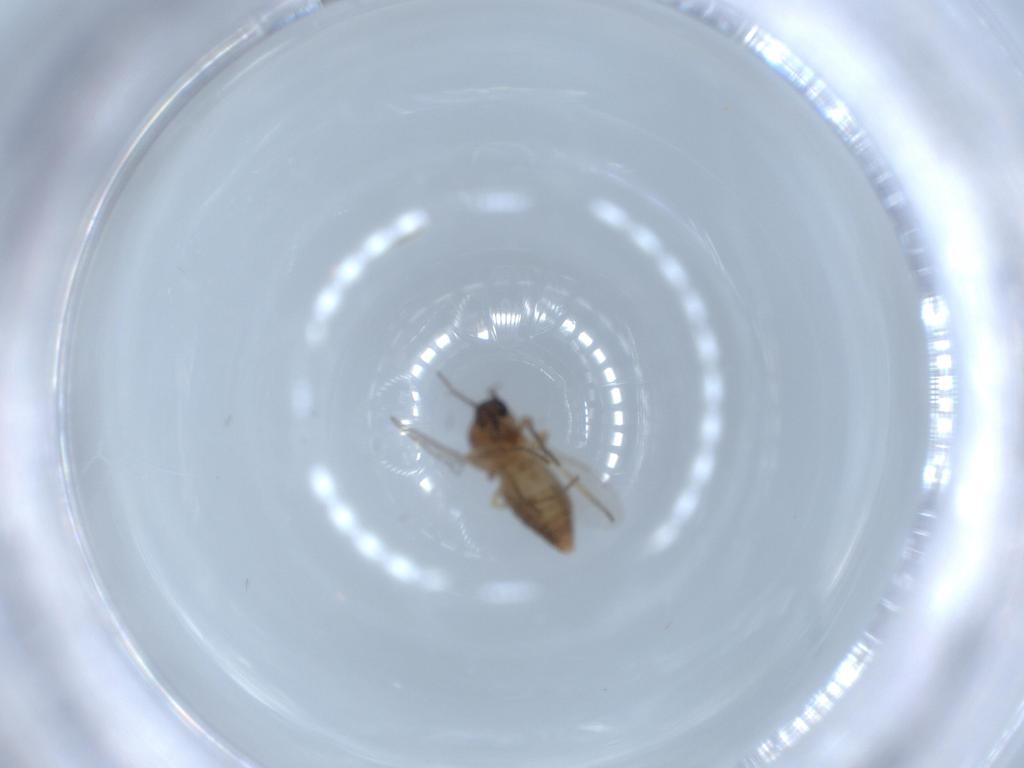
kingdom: Animalia
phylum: Arthropoda
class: Insecta
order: Diptera
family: Ceratopogonidae
